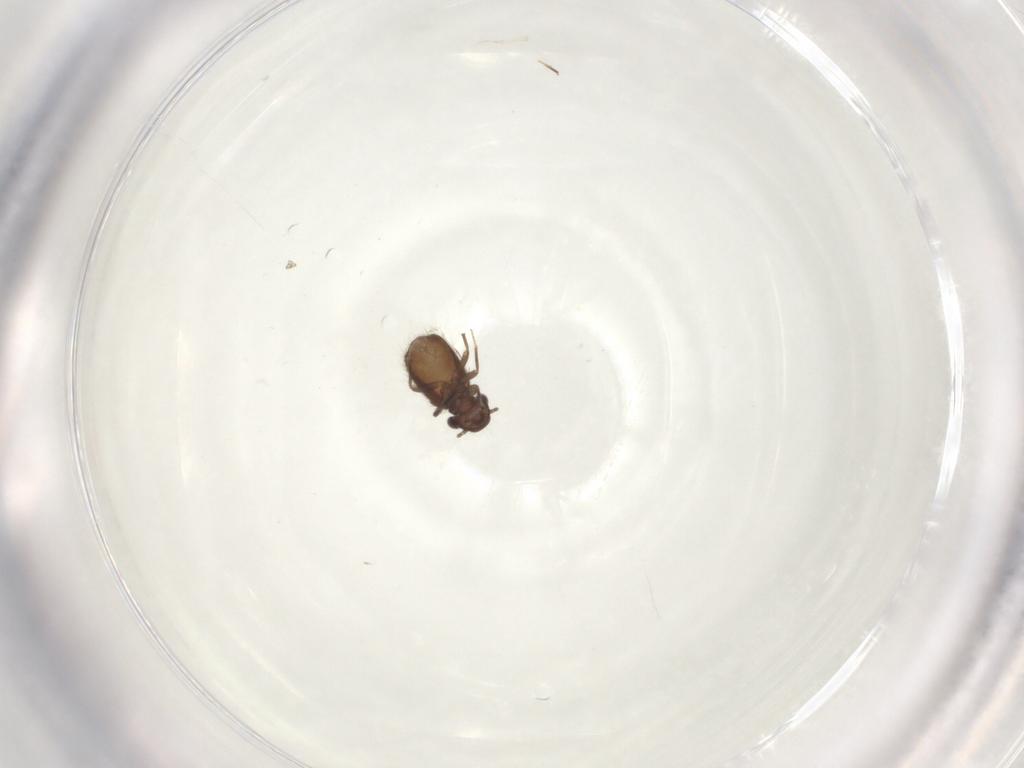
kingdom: Animalia
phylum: Arthropoda
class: Insecta
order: Psocodea
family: Trogiidae
